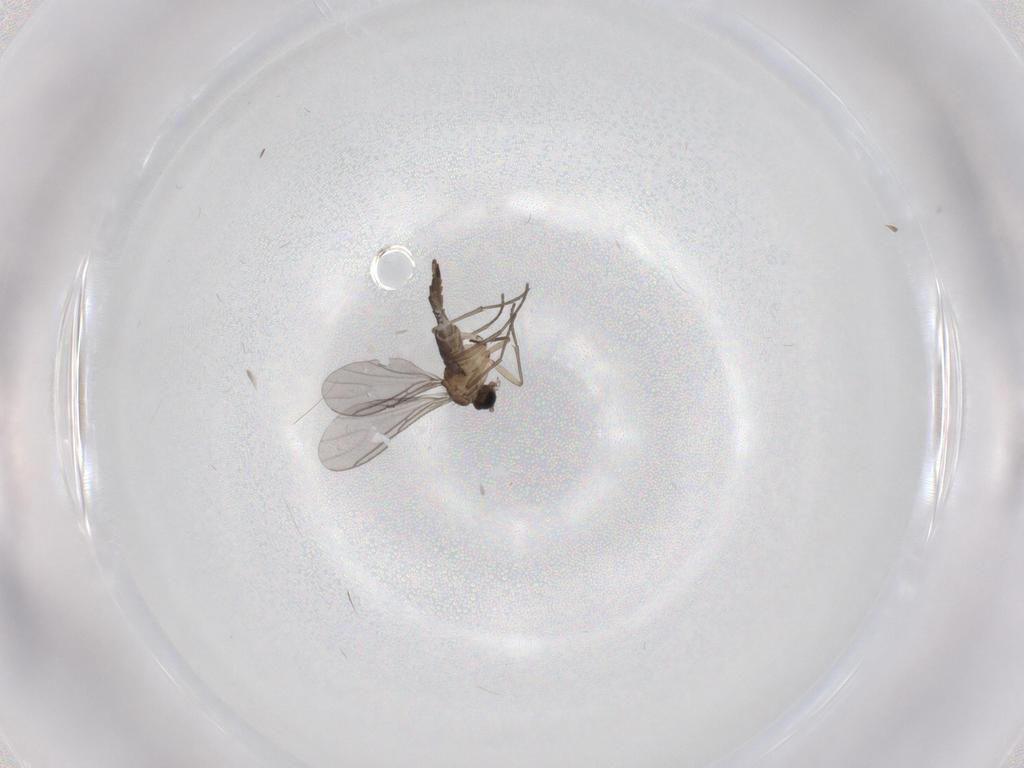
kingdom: Animalia
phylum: Arthropoda
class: Insecta
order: Diptera
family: Sciaridae
